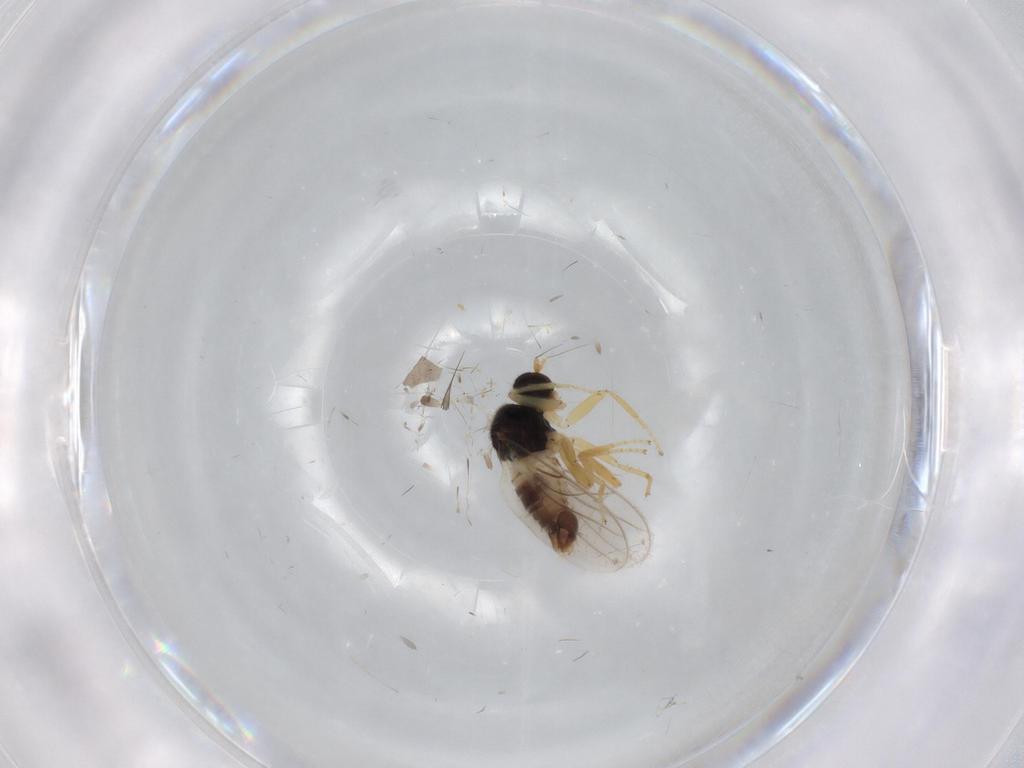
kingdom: Animalia
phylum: Arthropoda
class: Insecta
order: Diptera
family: Hybotidae
